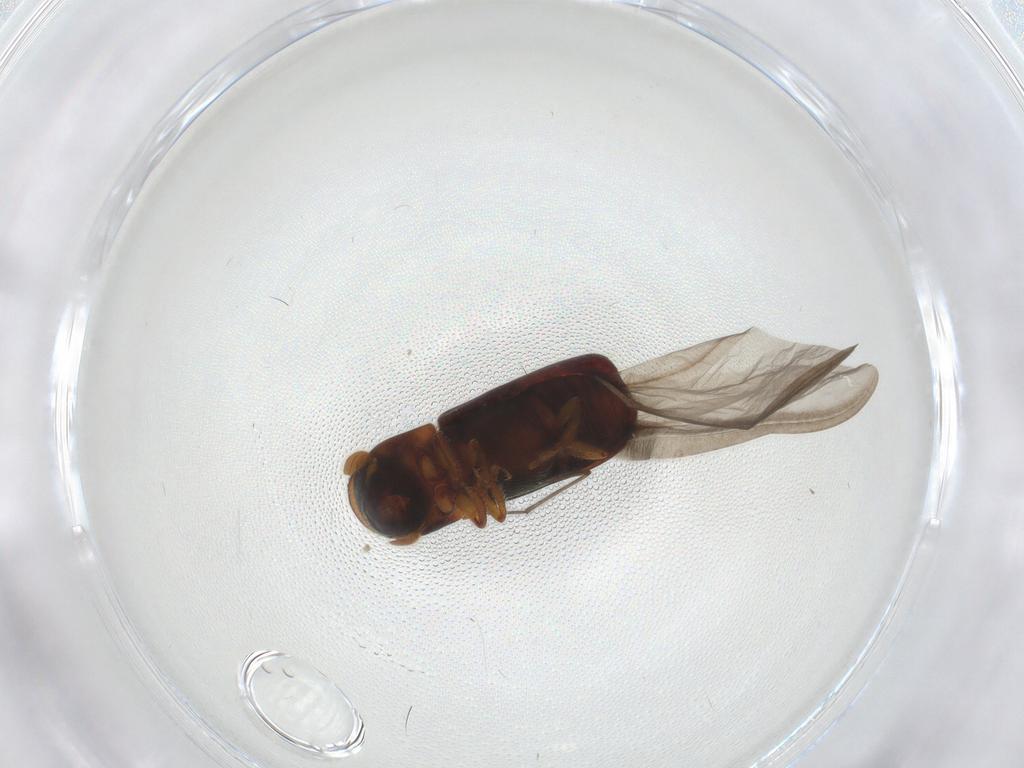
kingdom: Animalia
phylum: Arthropoda
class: Insecta
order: Coleoptera
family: Curculionidae
